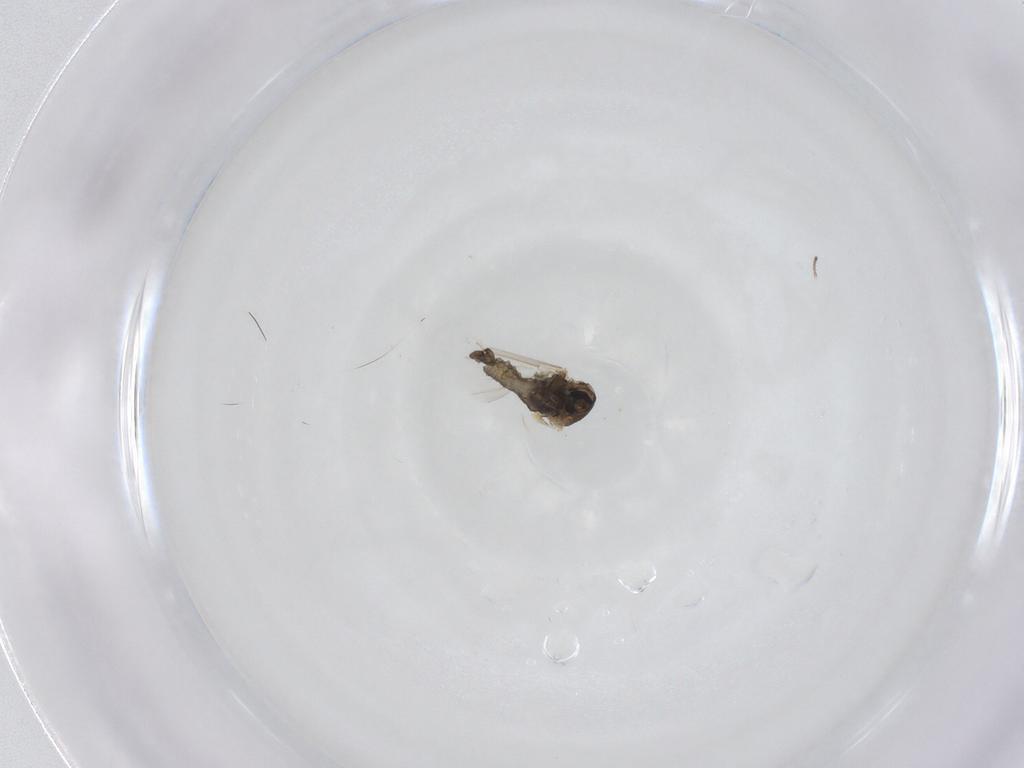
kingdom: Animalia
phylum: Arthropoda
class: Insecta
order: Diptera
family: Cecidomyiidae
